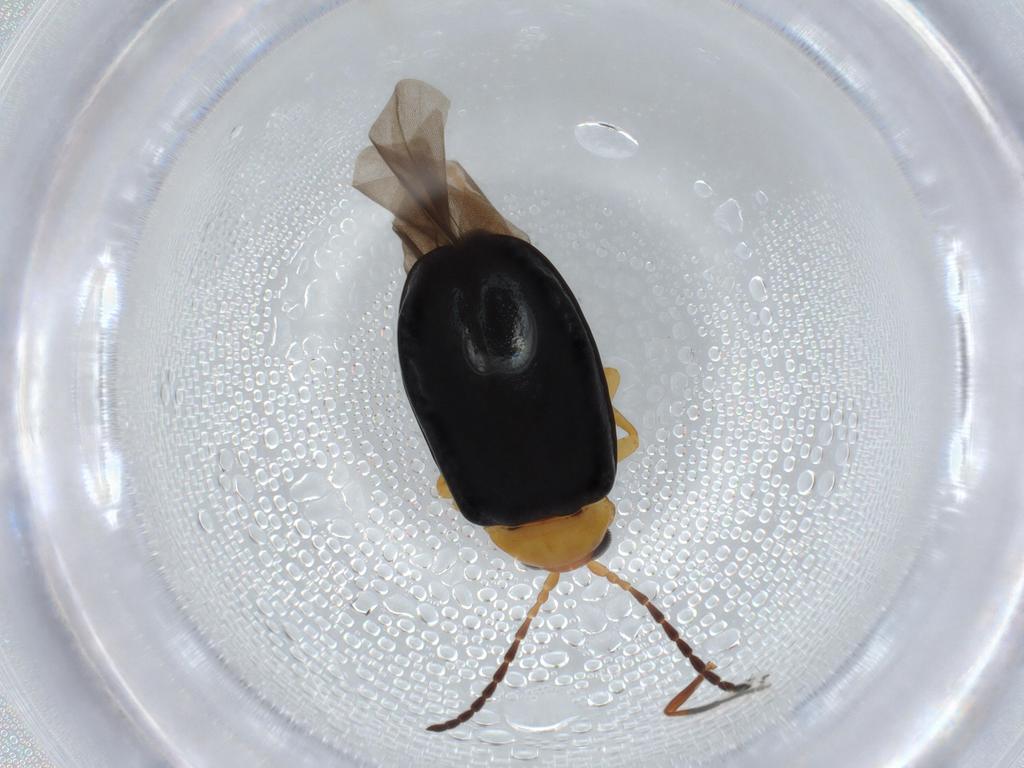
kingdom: Animalia
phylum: Arthropoda
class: Insecta
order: Coleoptera
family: Chrysomelidae
